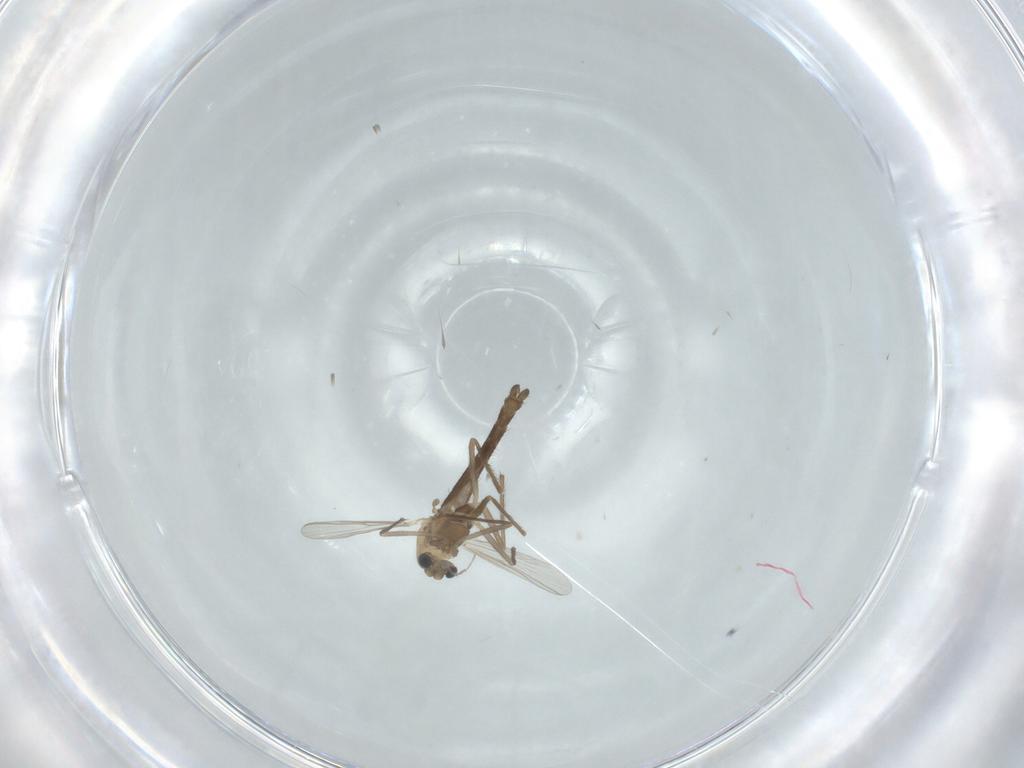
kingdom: Animalia
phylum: Arthropoda
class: Insecta
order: Diptera
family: Chironomidae
